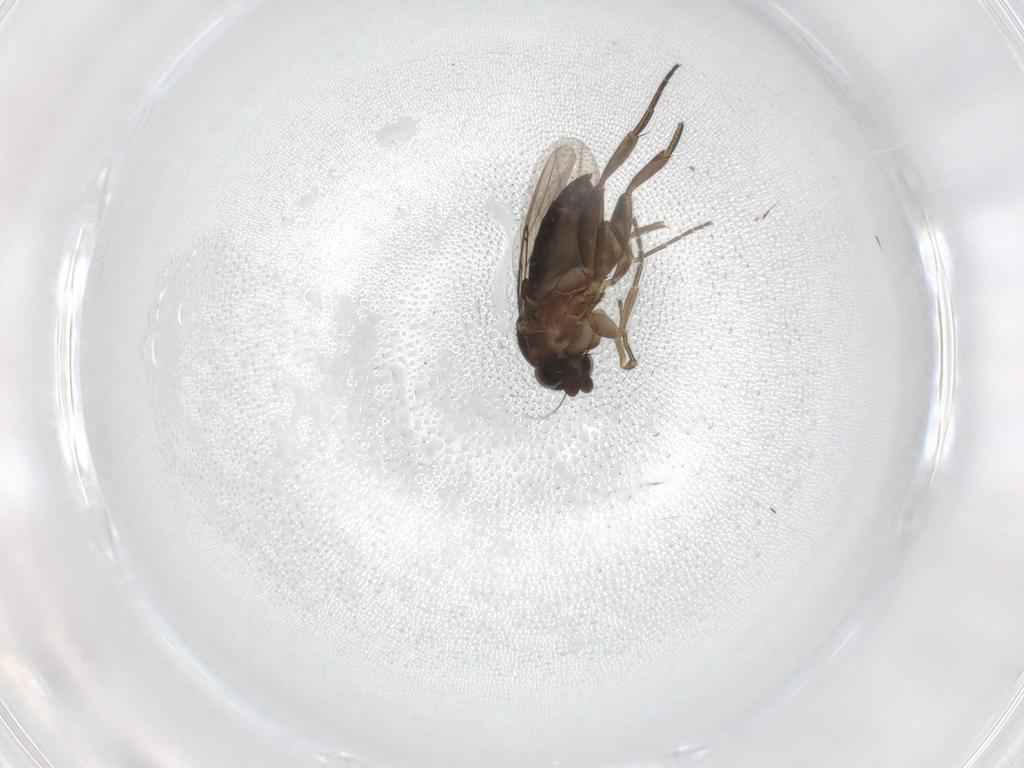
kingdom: Animalia
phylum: Arthropoda
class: Insecta
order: Diptera
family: Phoridae
